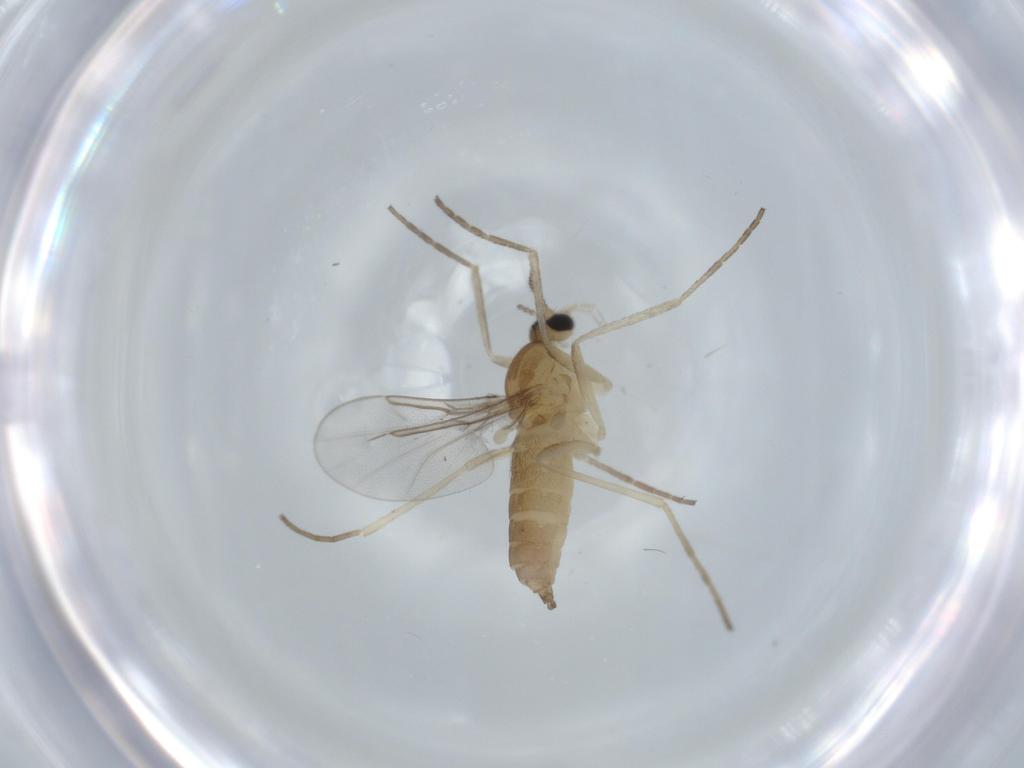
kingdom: Animalia
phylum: Arthropoda
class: Insecta
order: Diptera
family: Cecidomyiidae
